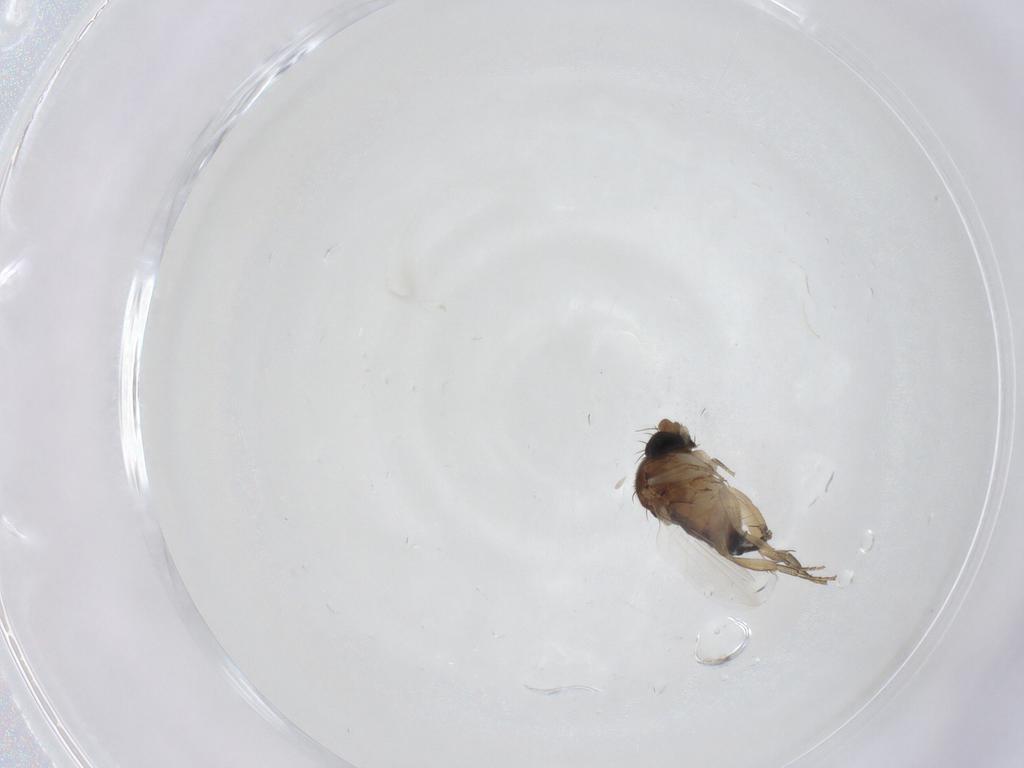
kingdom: Animalia
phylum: Arthropoda
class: Insecta
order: Diptera
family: Phoridae
